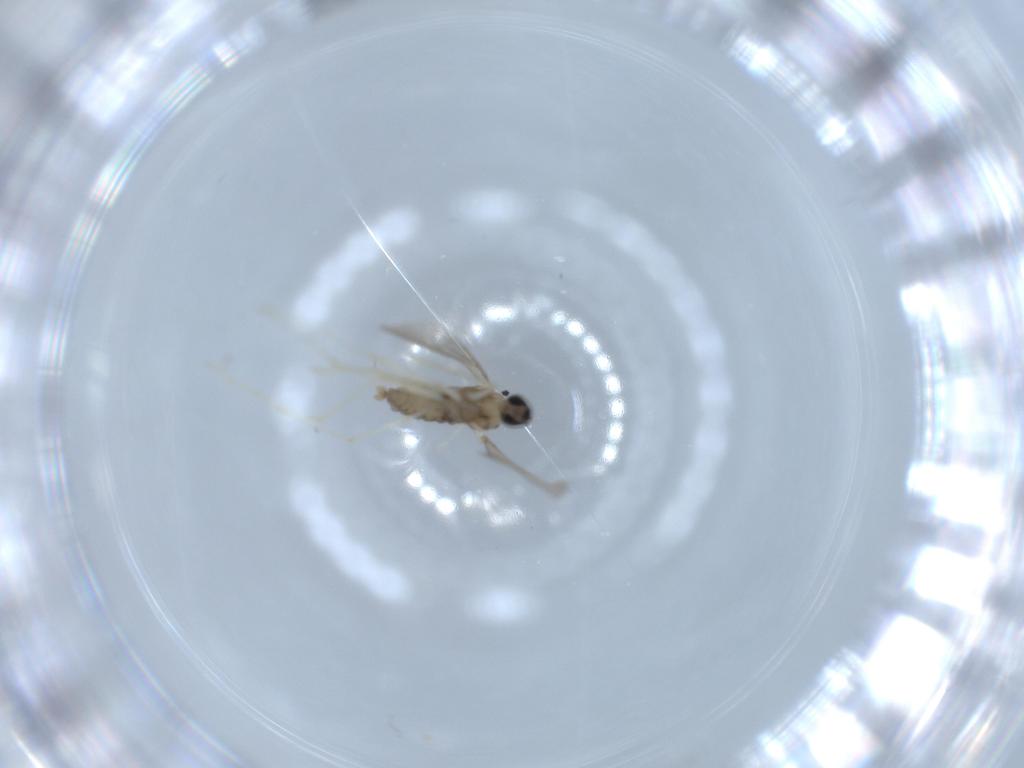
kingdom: Animalia
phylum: Arthropoda
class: Insecta
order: Diptera
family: Cecidomyiidae
